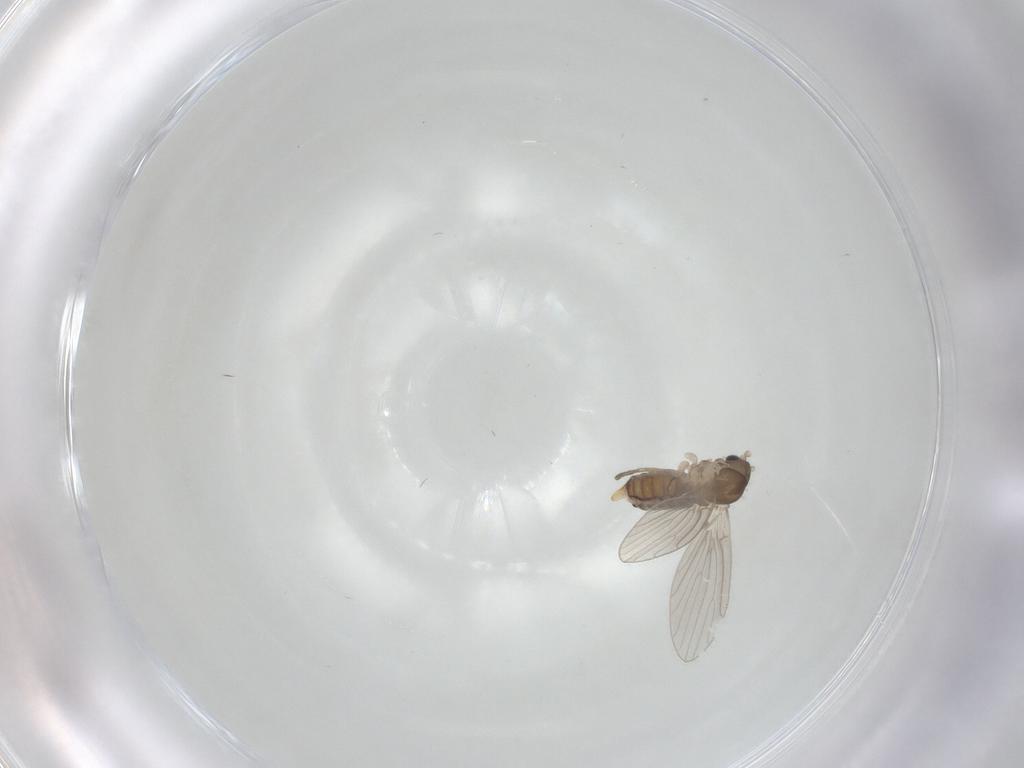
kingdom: Animalia
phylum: Arthropoda
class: Insecta
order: Diptera
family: Psychodidae
